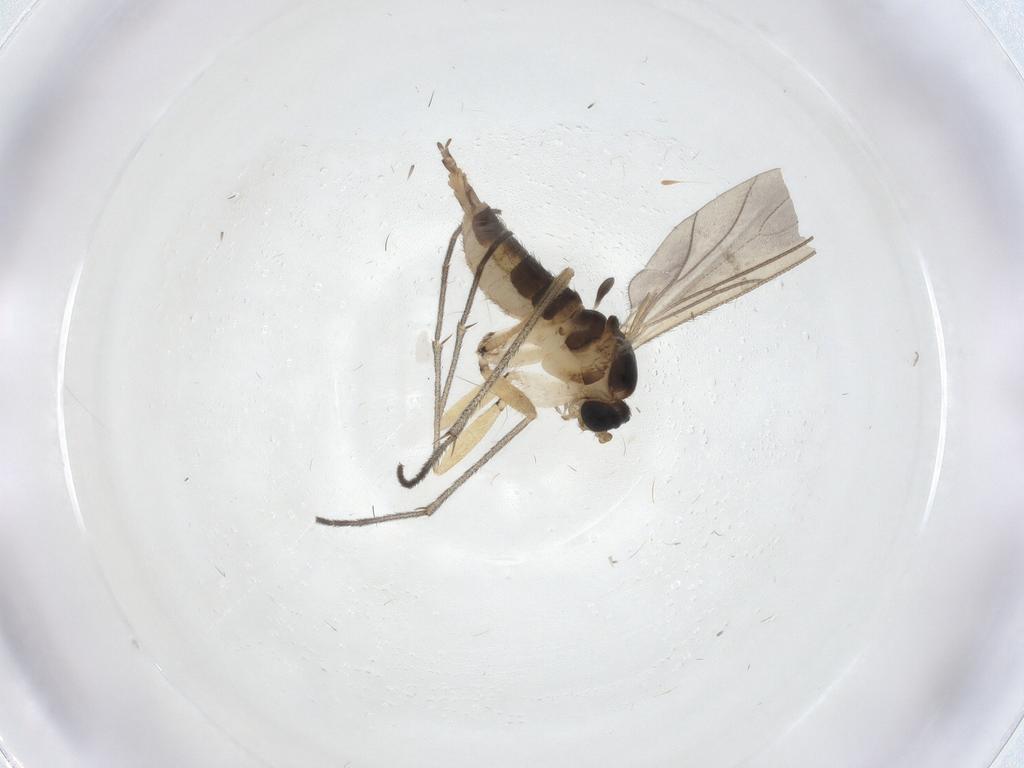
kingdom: Animalia
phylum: Arthropoda
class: Insecta
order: Diptera
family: Sciaridae
